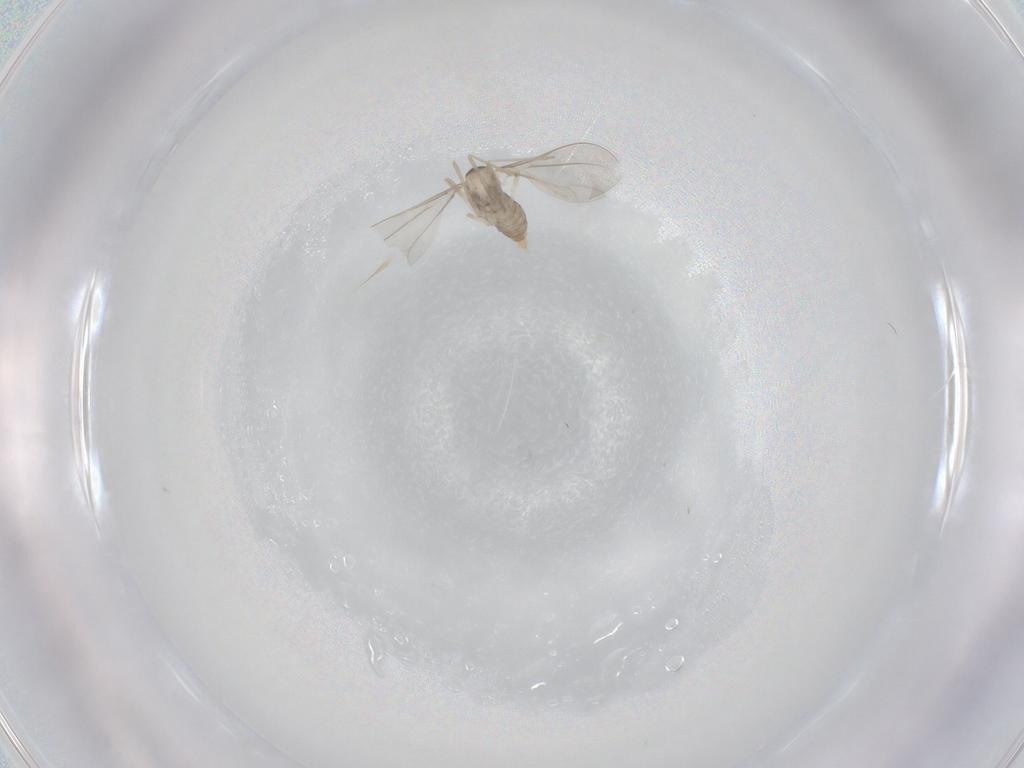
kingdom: Animalia
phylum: Arthropoda
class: Insecta
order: Diptera
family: Cecidomyiidae
